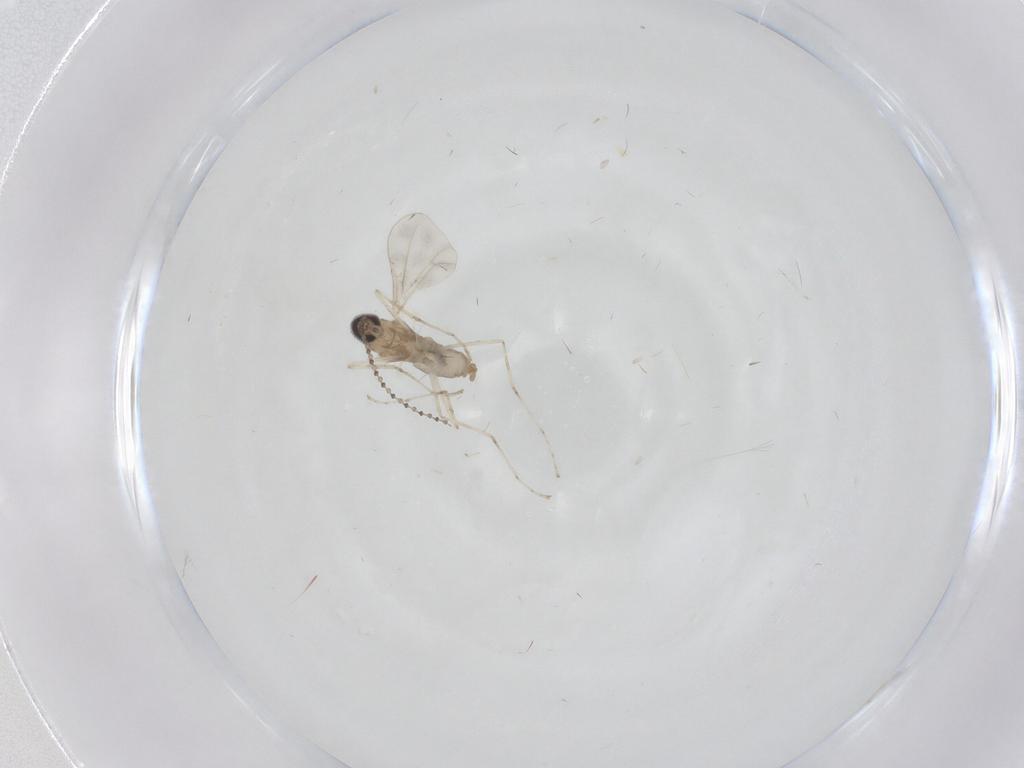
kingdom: Animalia
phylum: Arthropoda
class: Insecta
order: Diptera
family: Cecidomyiidae
